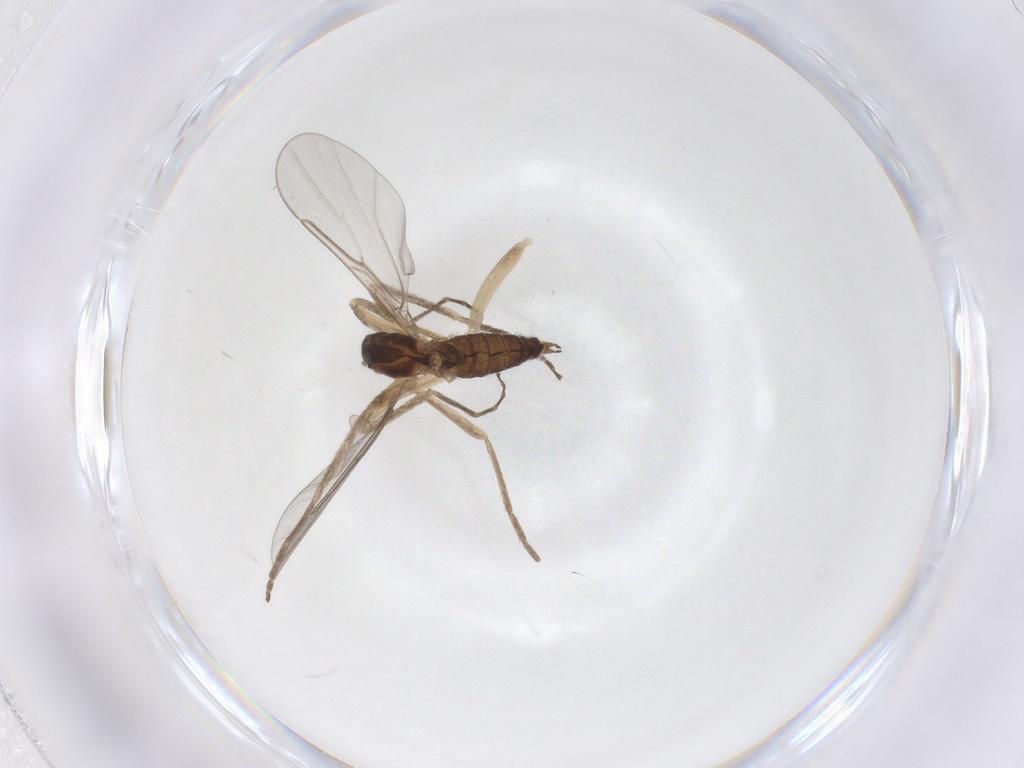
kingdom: Animalia
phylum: Arthropoda
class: Insecta
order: Diptera
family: Cecidomyiidae
